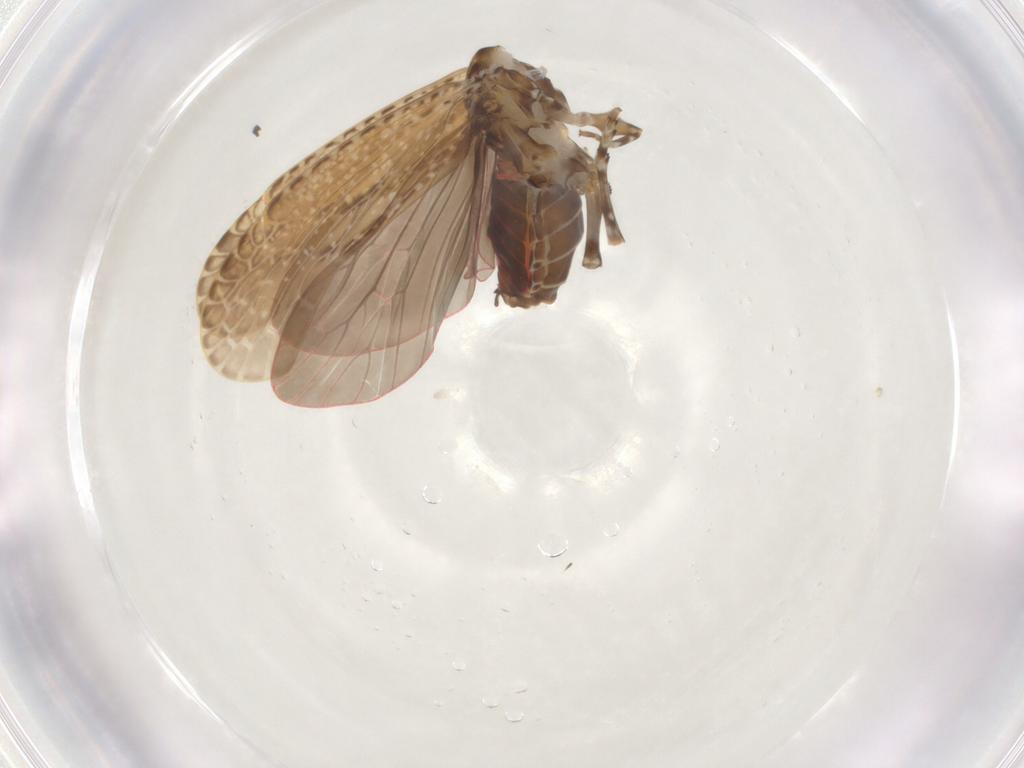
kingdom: Animalia
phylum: Arthropoda
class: Insecta
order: Hemiptera
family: Achilidae
